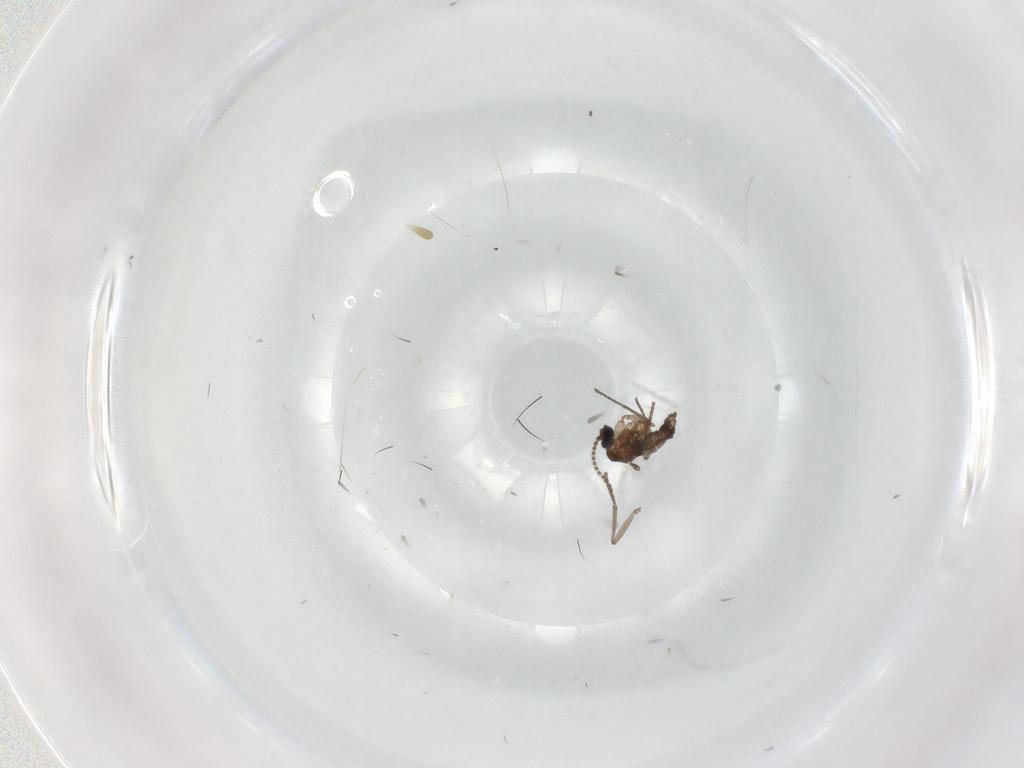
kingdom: Animalia
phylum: Arthropoda
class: Insecta
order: Diptera
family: Sciaridae
